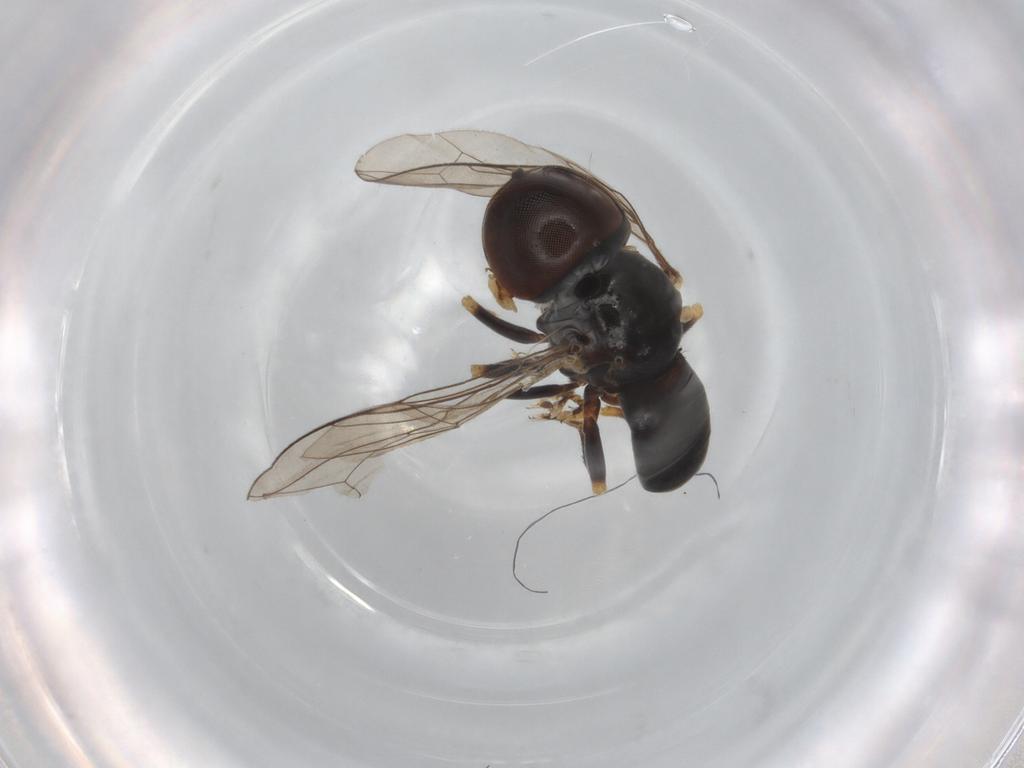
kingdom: Animalia
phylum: Arthropoda
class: Insecta
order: Diptera
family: Pipunculidae
